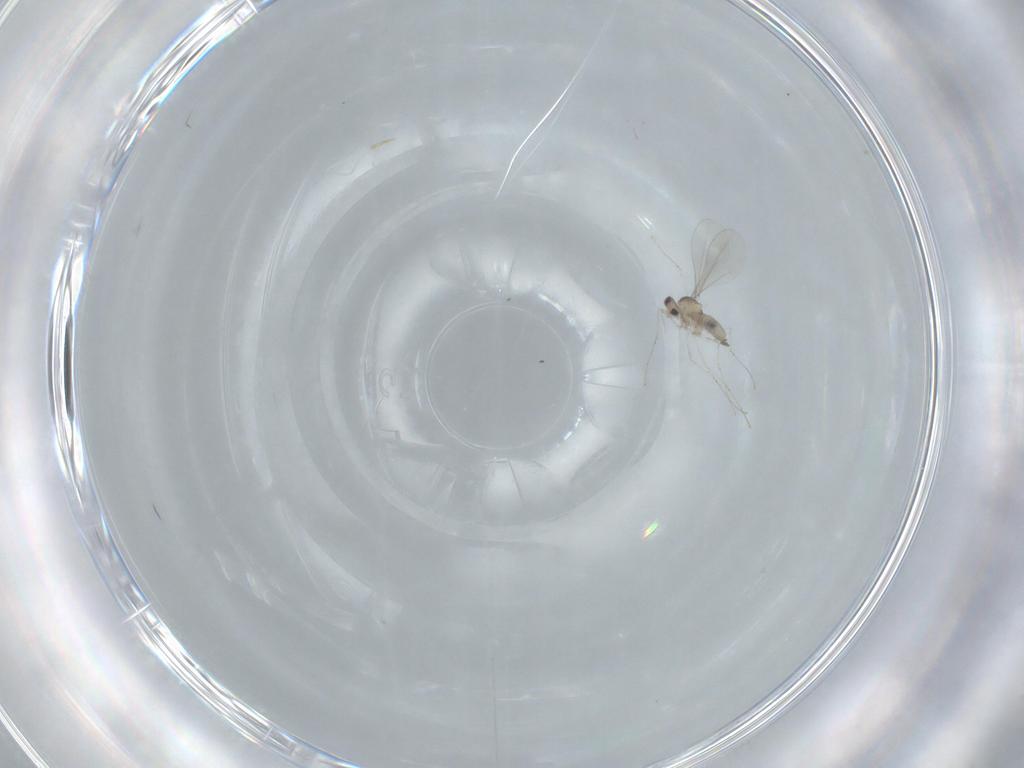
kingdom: Animalia
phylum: Arthropoda
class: Insecta
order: Diptera
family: Cecidomyiidae
